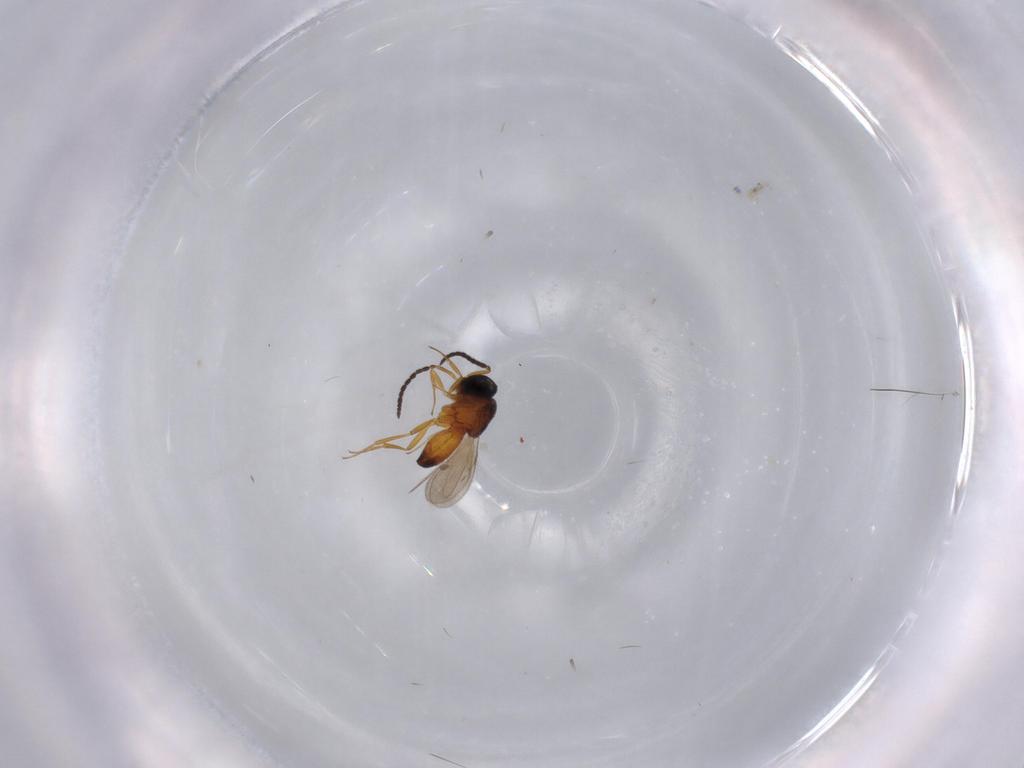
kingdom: Animalia
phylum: Arthropoda
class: Insecta
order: Hymenoptera
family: Scelionidae
